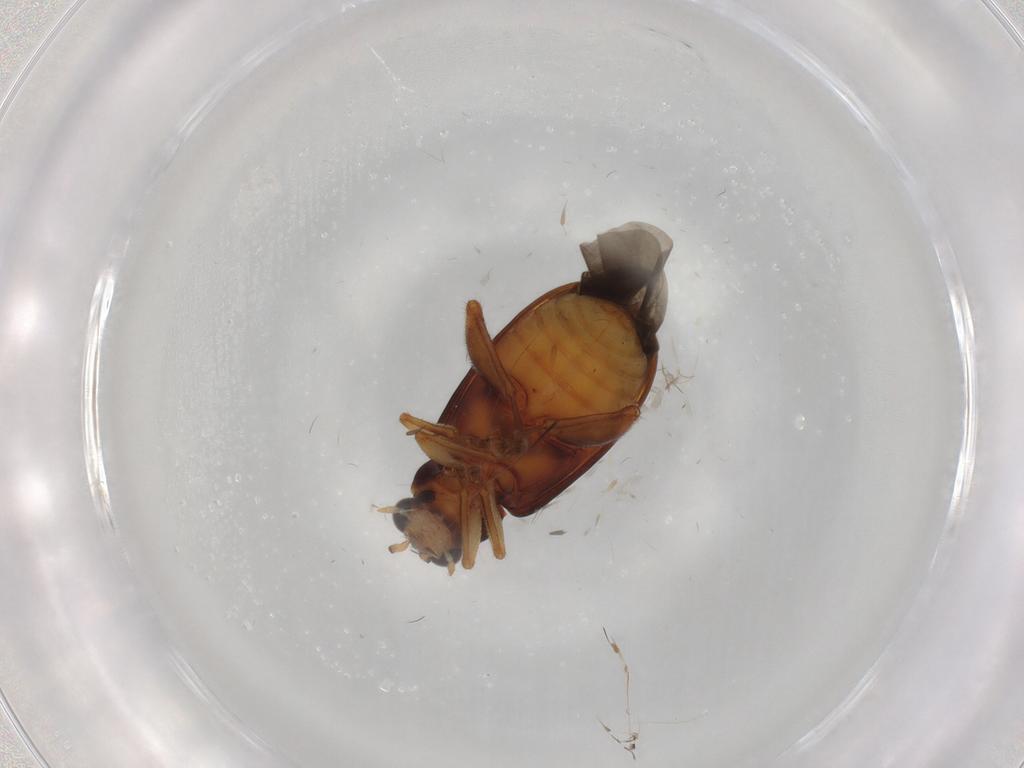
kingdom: Animalia
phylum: Arthropoda
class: Insecta
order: Coleoptera
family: Chrysomelidae
